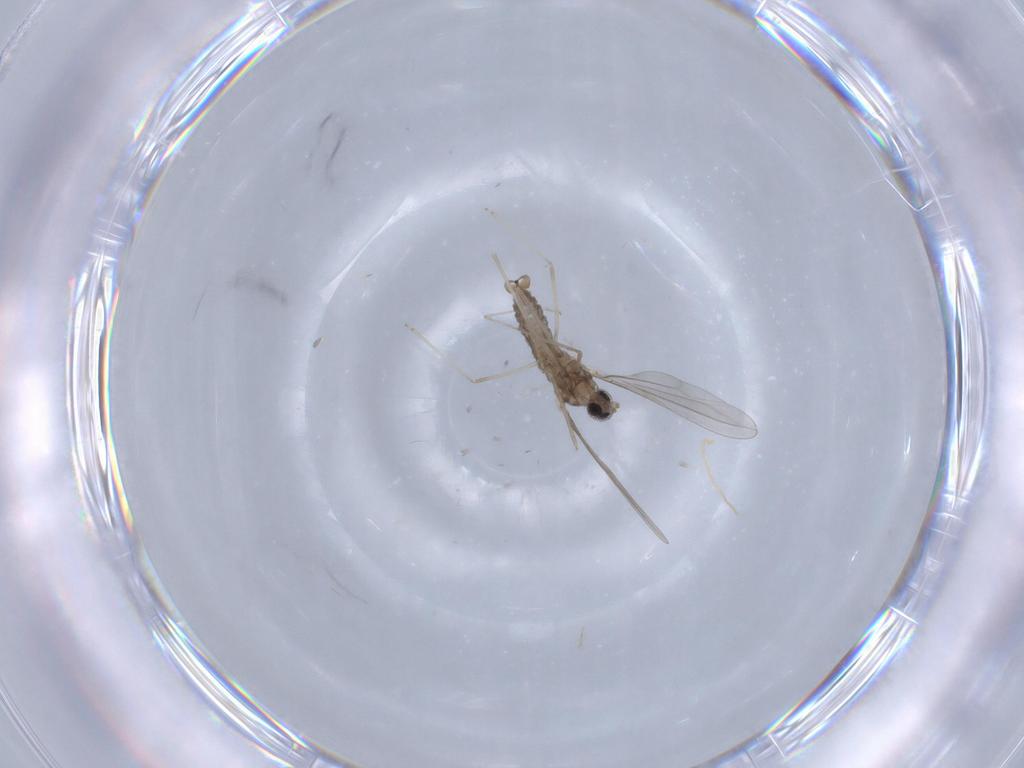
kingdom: Animalia
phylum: Arthropoda
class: Insecta
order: Diptera
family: Cecidomyiidae
